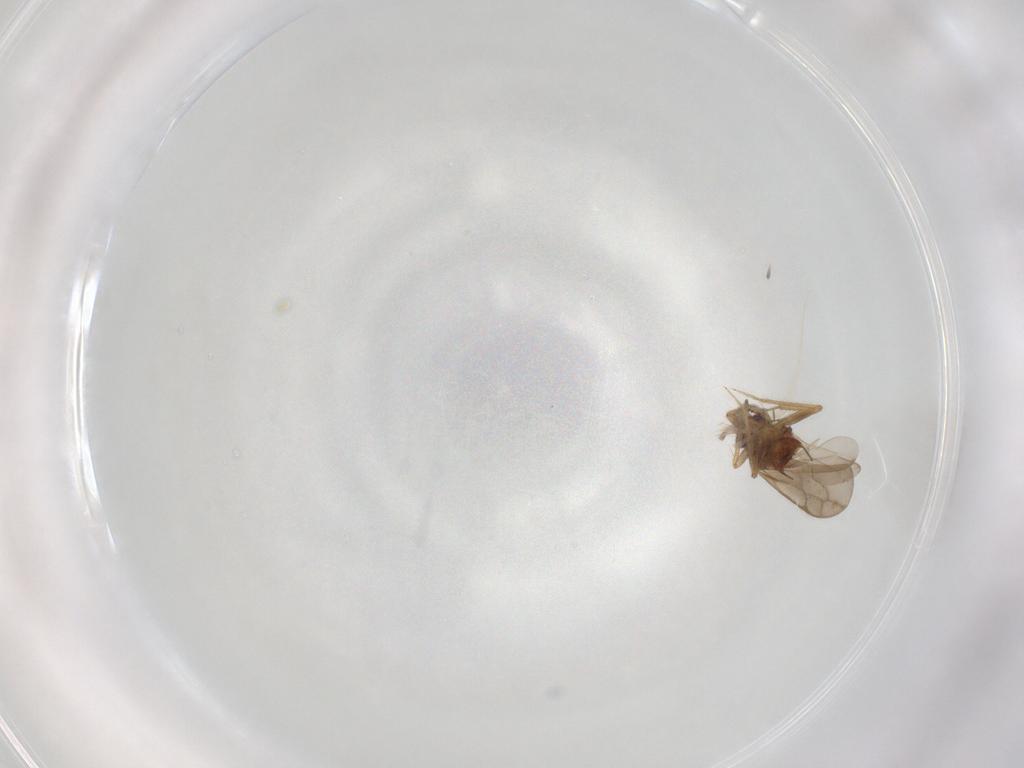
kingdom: Animalia
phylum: Arthropoda
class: Insecta
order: Hemiptera
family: Ceratocombidae
